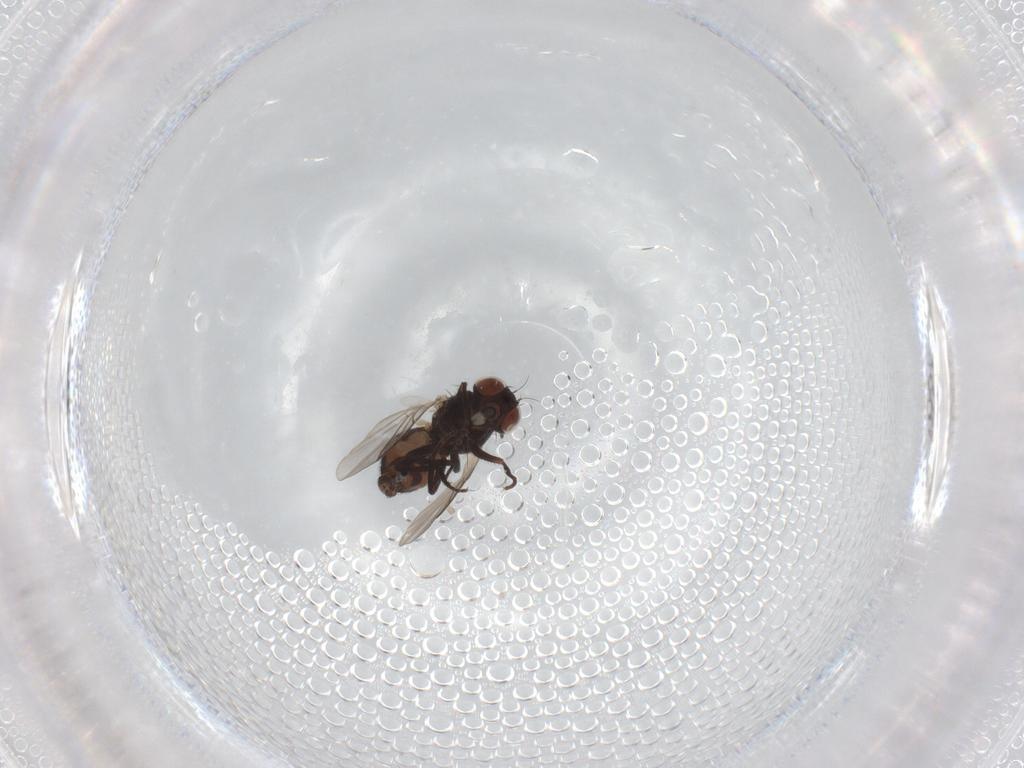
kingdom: Animalia
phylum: Arthropoda
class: Insecta
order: Diptera
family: Agromyzidae
